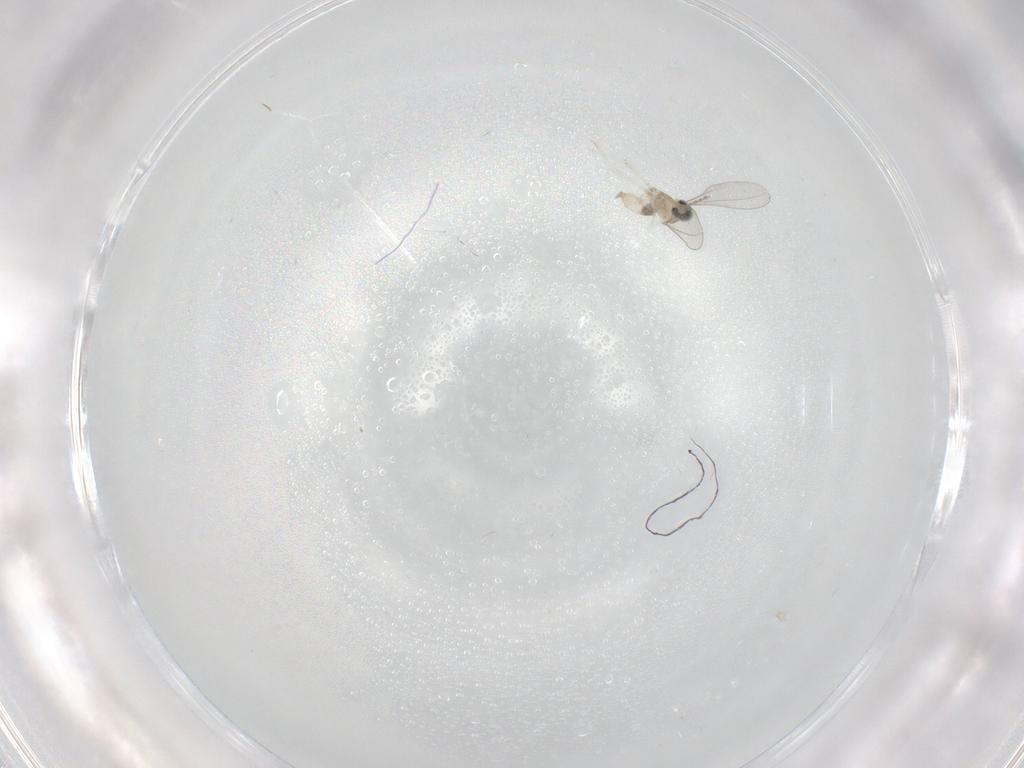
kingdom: Animalia
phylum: Arthropoda
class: Insecta
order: Diptera
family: Cecidomyiidae
